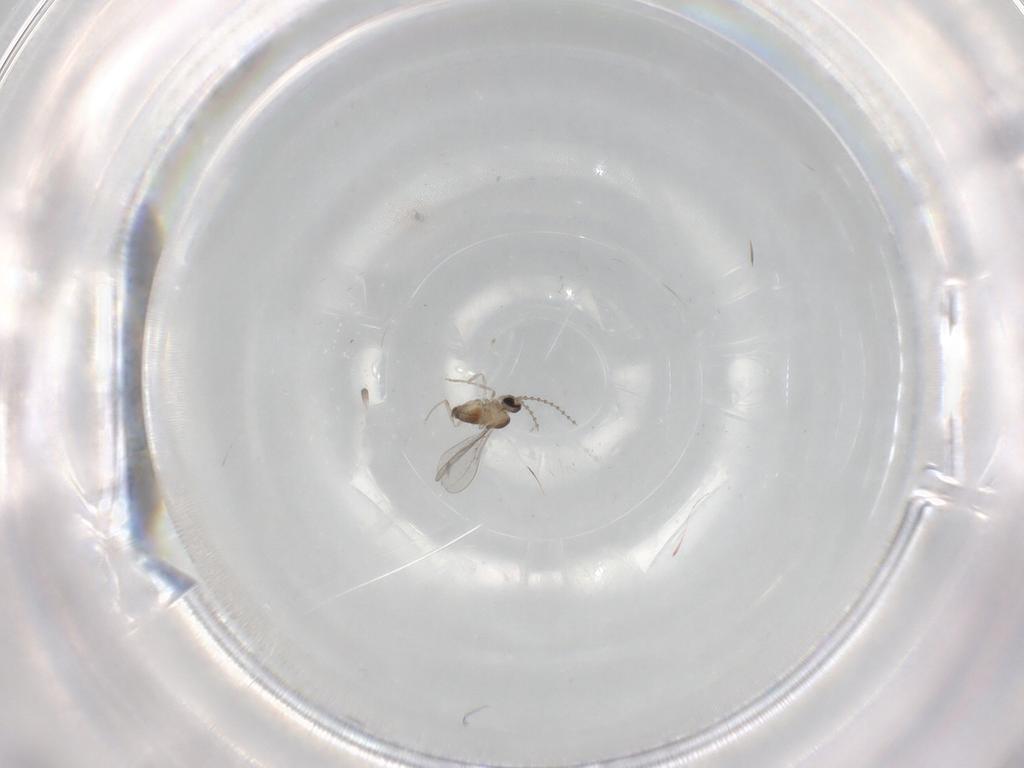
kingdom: Animalia
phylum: Arthropoda
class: Insecta
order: Diptera
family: Cecidomyiidae
